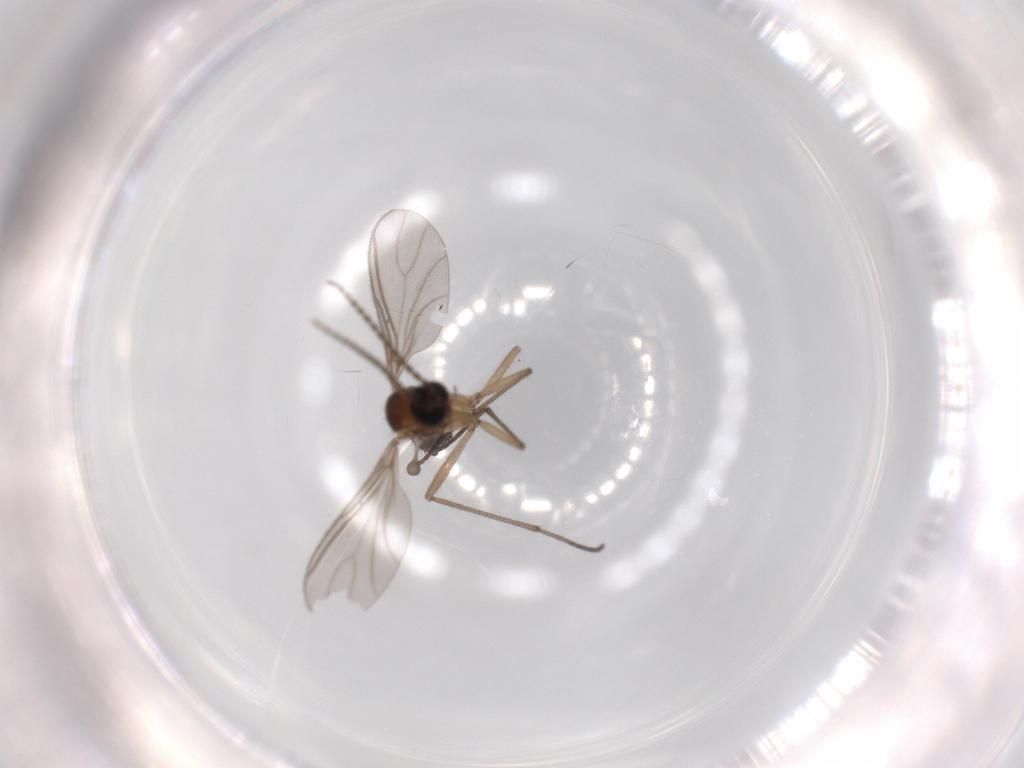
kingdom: Animalia
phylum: Arthropoda
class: Insecta
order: Diptera
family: Sciaridae
